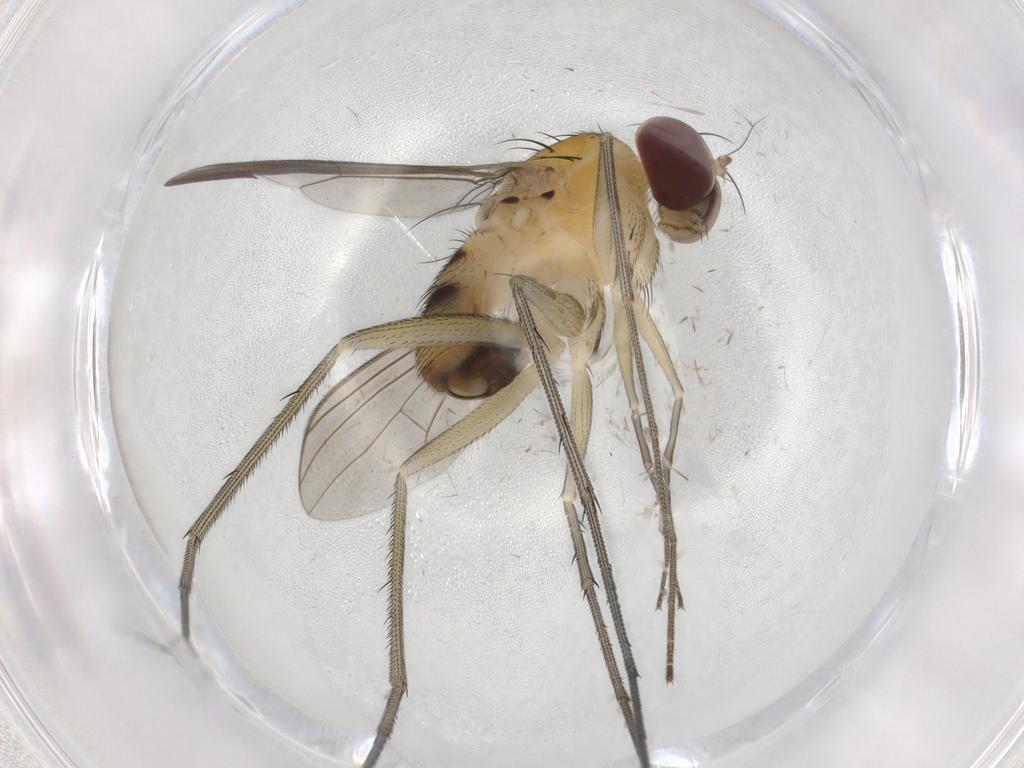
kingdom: Animalia
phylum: Arthropoda
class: Insecta
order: Diptera
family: Dolichopodidae
